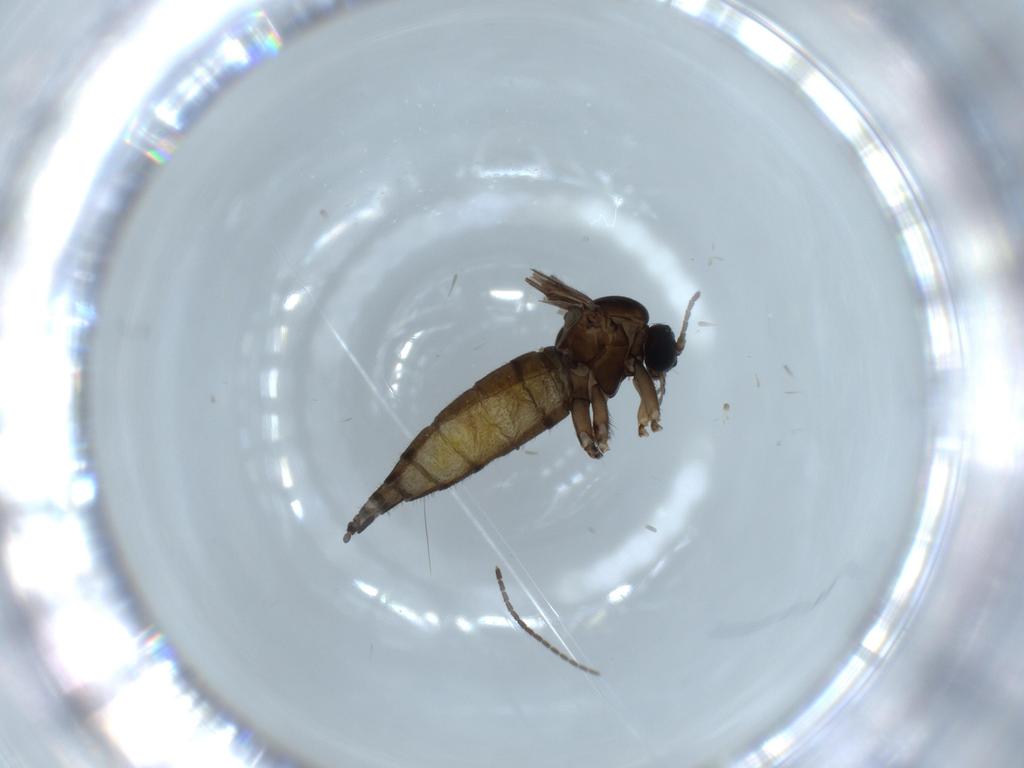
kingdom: Animalia
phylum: Arthropoda
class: Insecta
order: Diptera
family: Sciaridae
